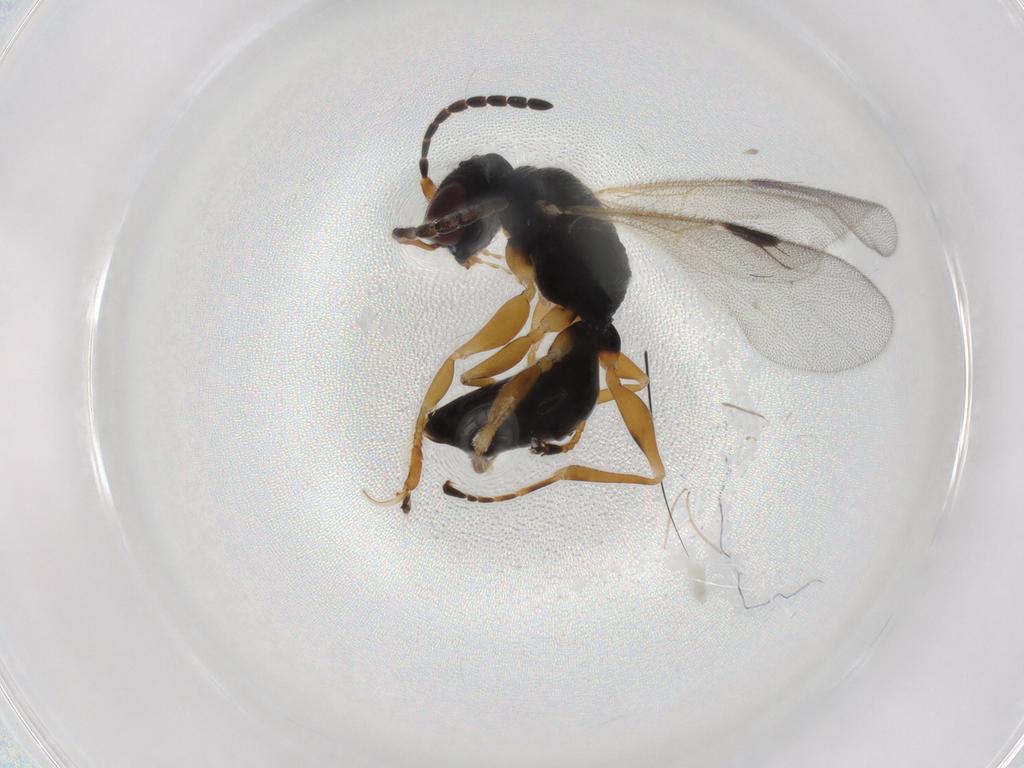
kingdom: Animalia
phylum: Arthropoda
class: Insecta
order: Hymenoptera
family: Dryinidae
